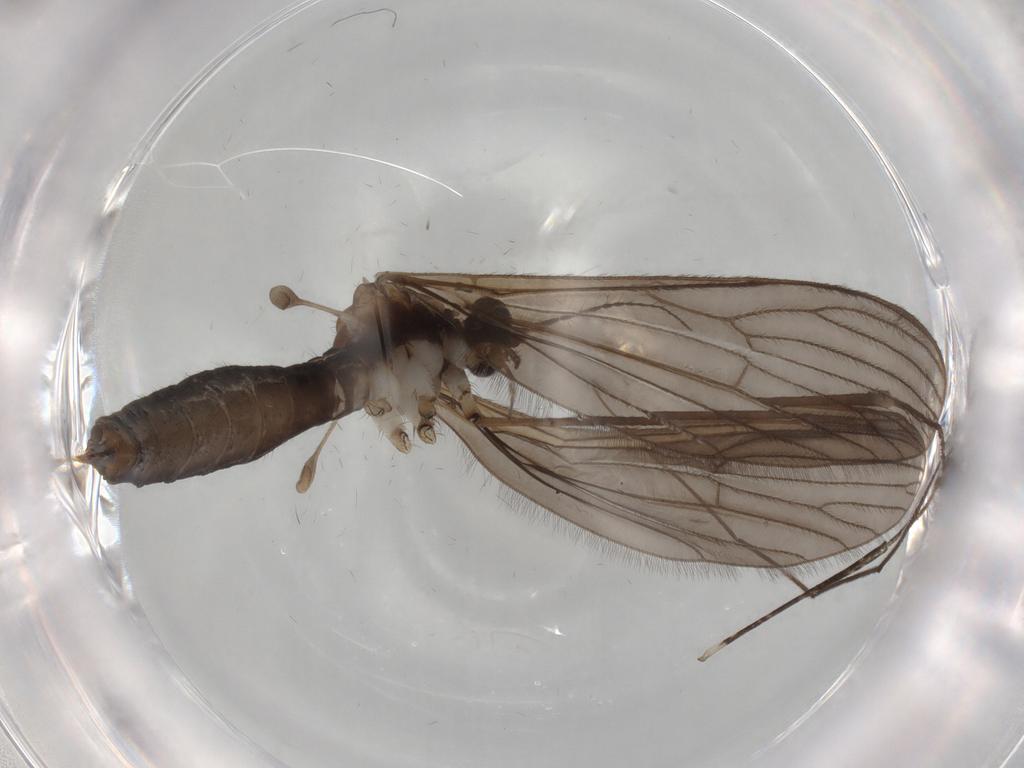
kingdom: Animalia
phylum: Arthropoda
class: Insecta
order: Diptera
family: Limoniidae
